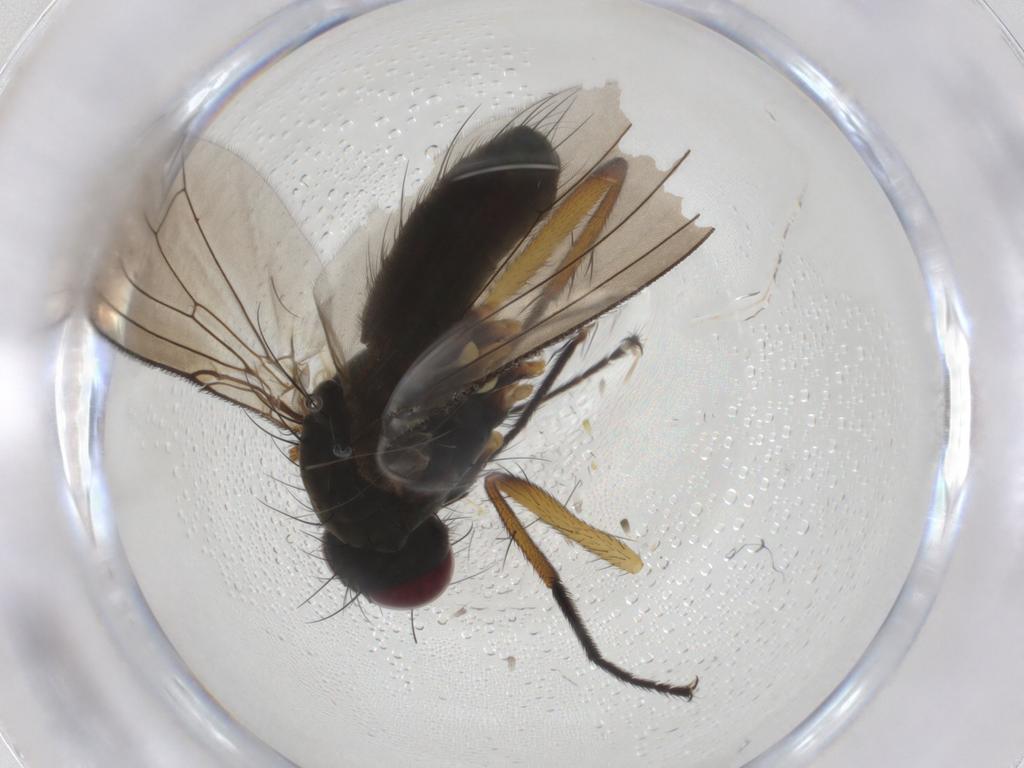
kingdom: Animalia
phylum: Arthropoda
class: Insecta
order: Diptera
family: Muscidae
